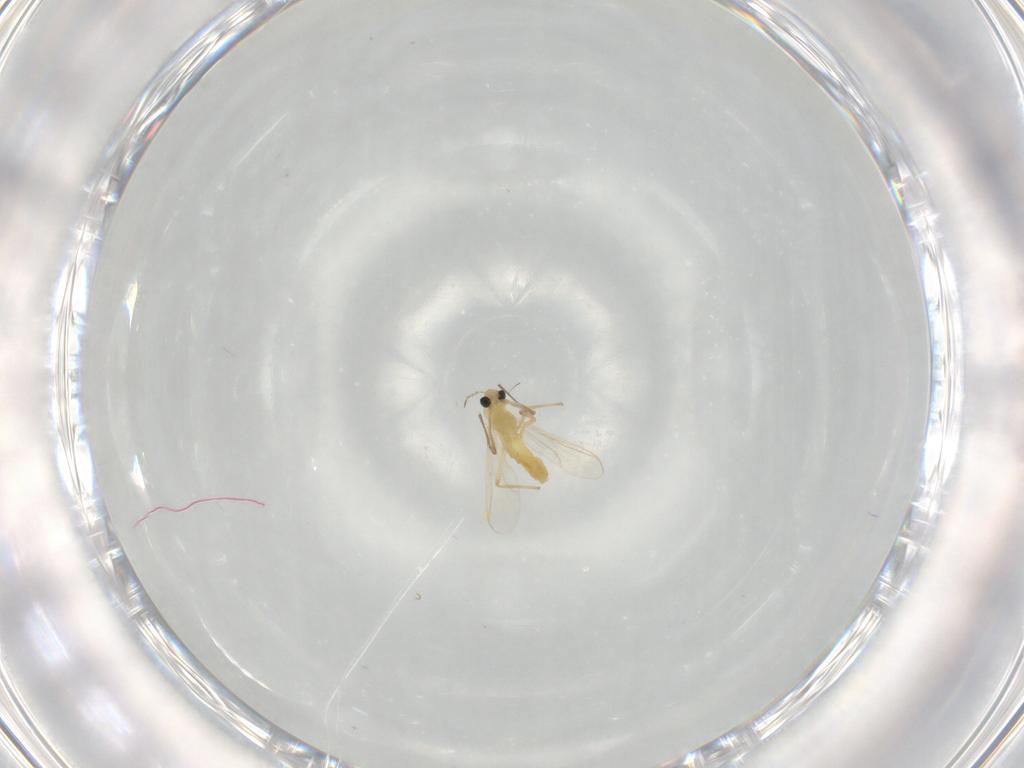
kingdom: Animalia
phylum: Arthropoda
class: Insecta
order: Diptera
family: Chironomidae
